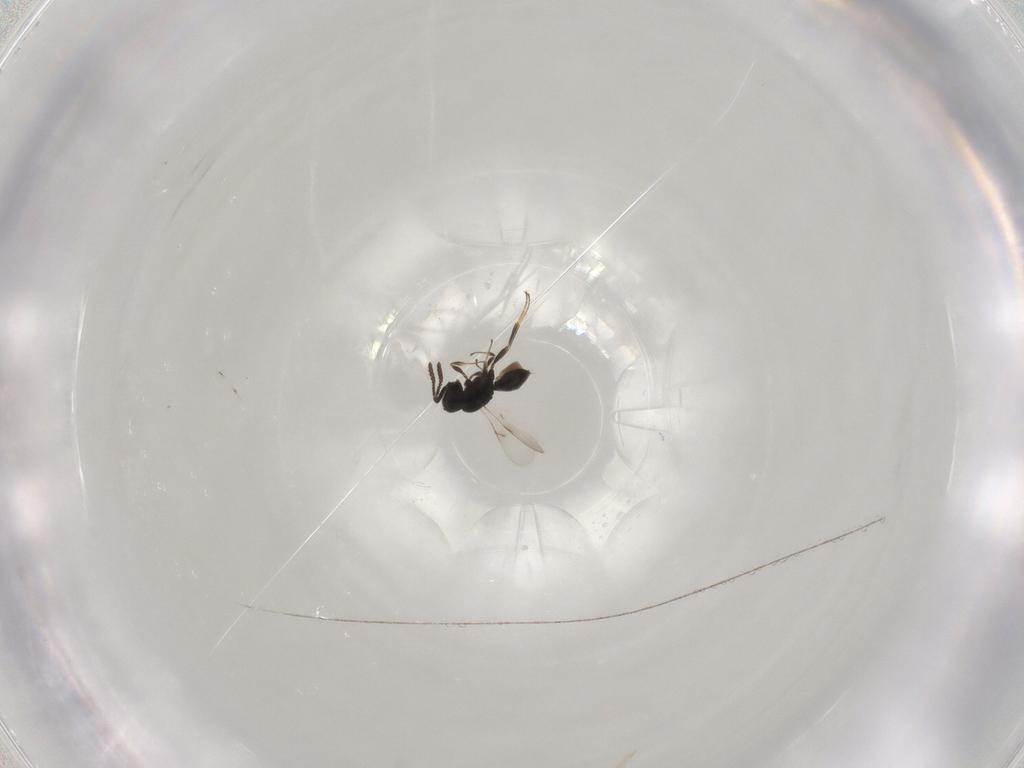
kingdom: Animalia
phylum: Arthropoda
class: Insecta
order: Hymenoptera
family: Scelionidae
